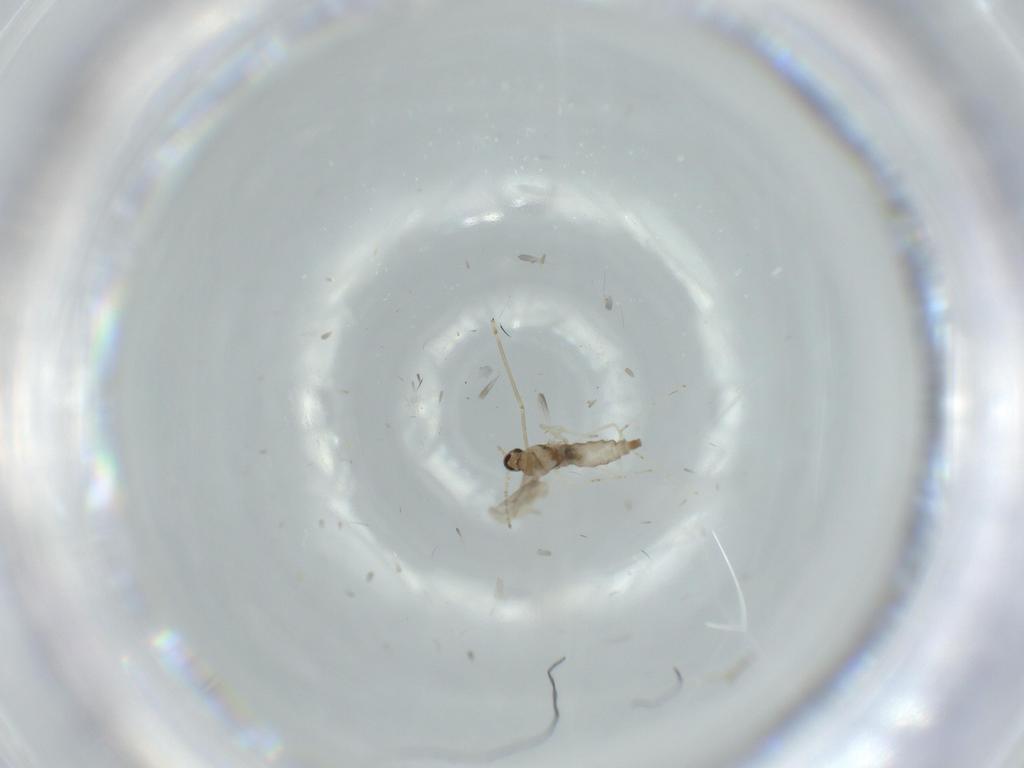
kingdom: Animalia
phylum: Arthropoda
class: Insecta
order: Diptera
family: Cecidomyiidae
